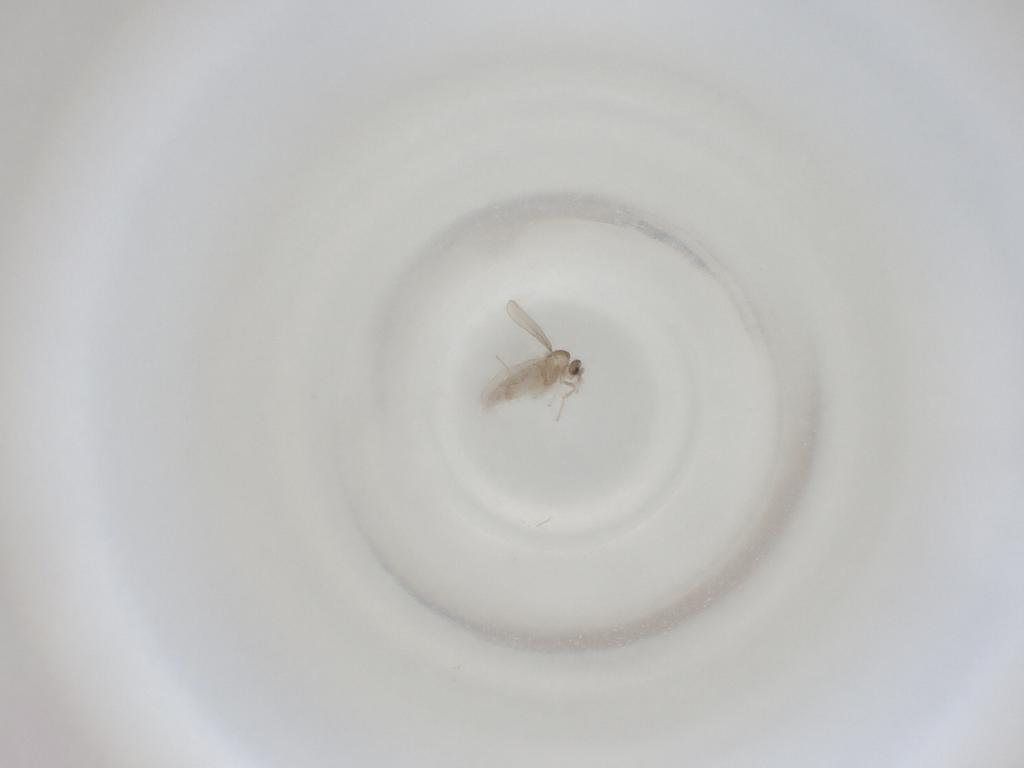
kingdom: Animalia
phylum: Arthropoda
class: Insecta
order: Diptera
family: Cecidomyiidae
